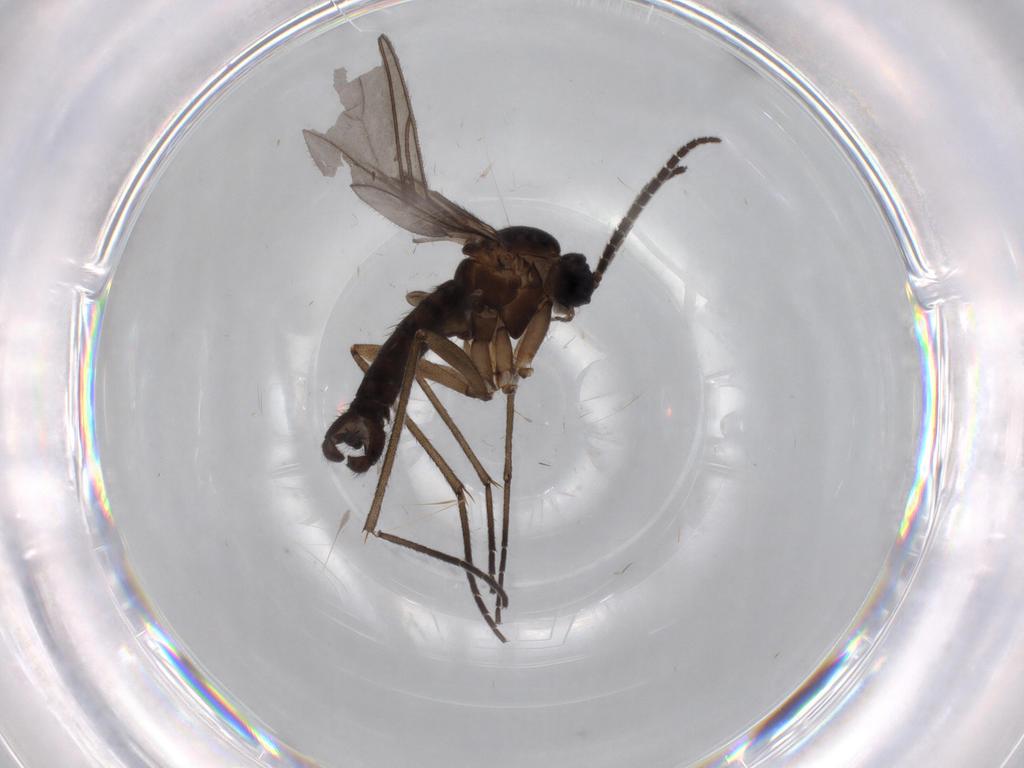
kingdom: Animalia
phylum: Arthropoda
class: Insecta
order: Diptera
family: Sciaridae
